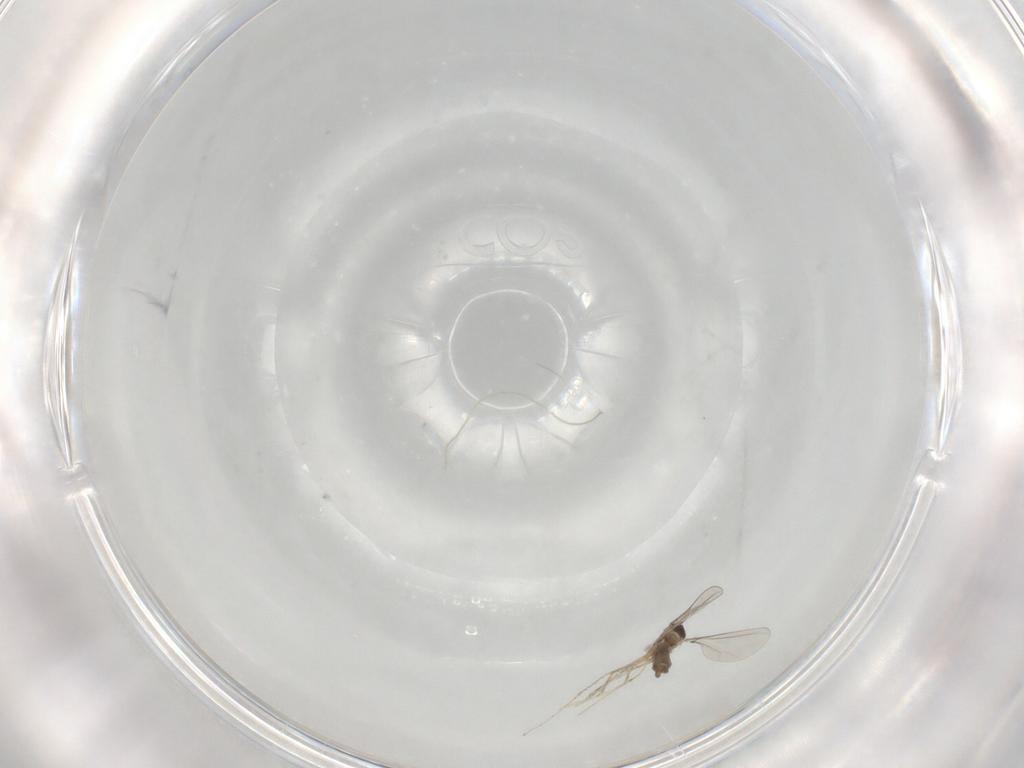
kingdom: Animalia
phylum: Arthropoda
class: Insecta
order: Diptera
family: Cecidomyiidae
